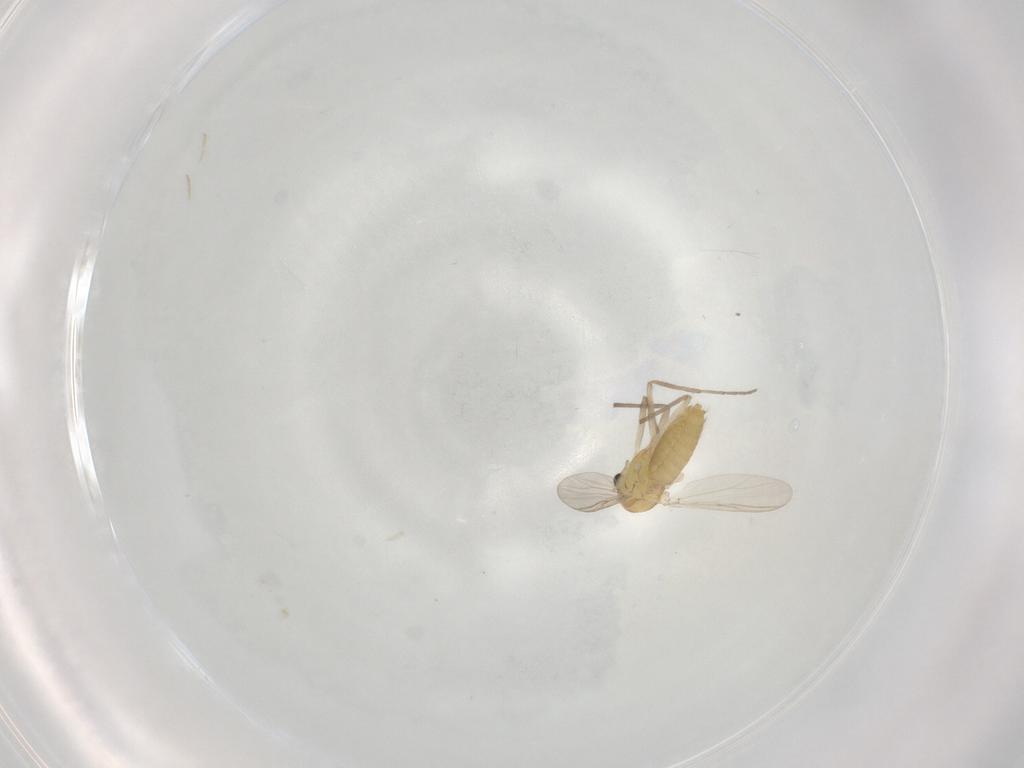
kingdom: Animalia
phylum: Arthropoda
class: Insecta
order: Diptera
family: Chironomidae
